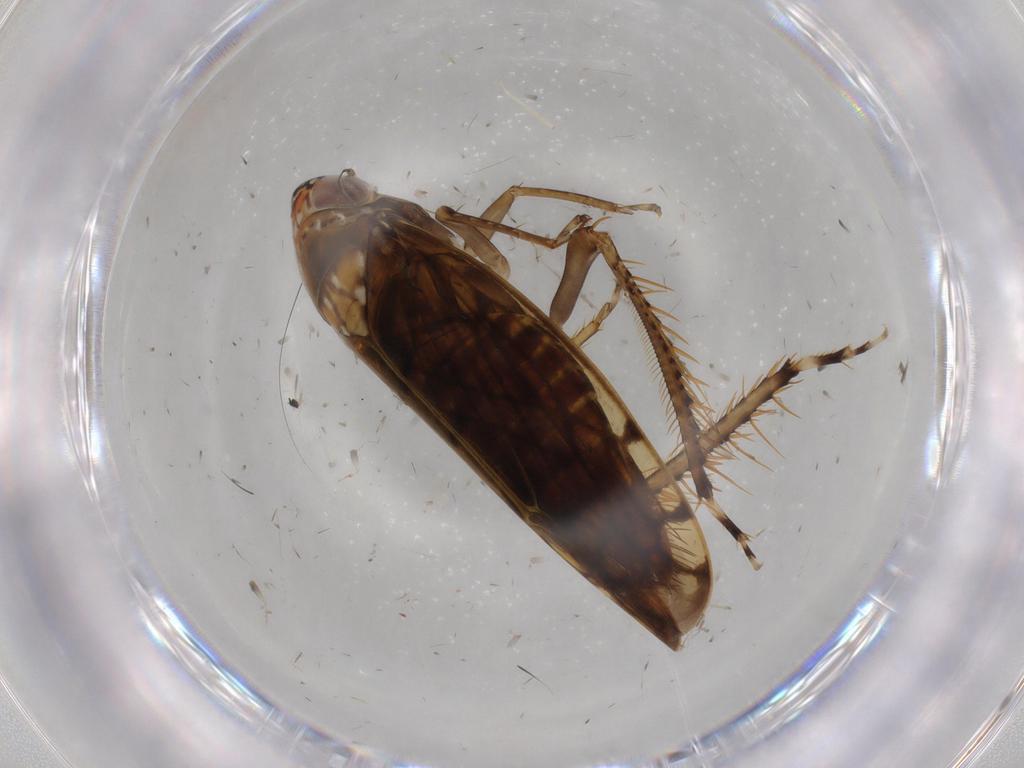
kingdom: Animalia
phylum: Arthropoda
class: Insecta
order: Hemiptera
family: Cicadellidae
